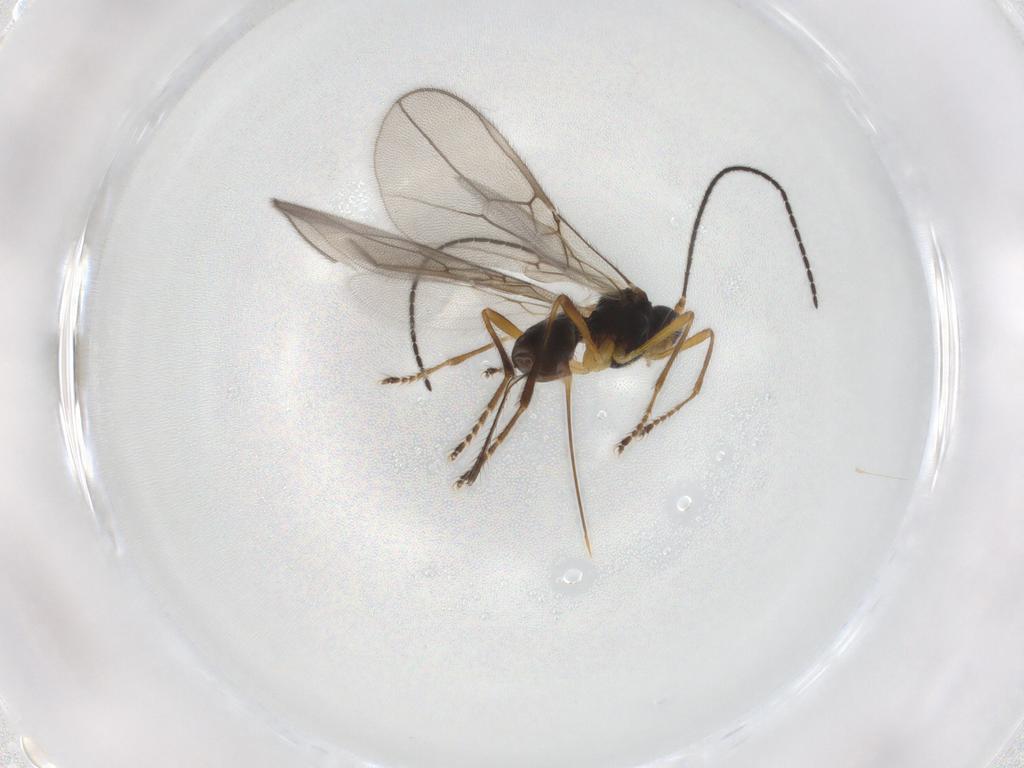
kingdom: Animalia
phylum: Arthropoda
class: Insecta
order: Hymenoptera
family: Braconidae
